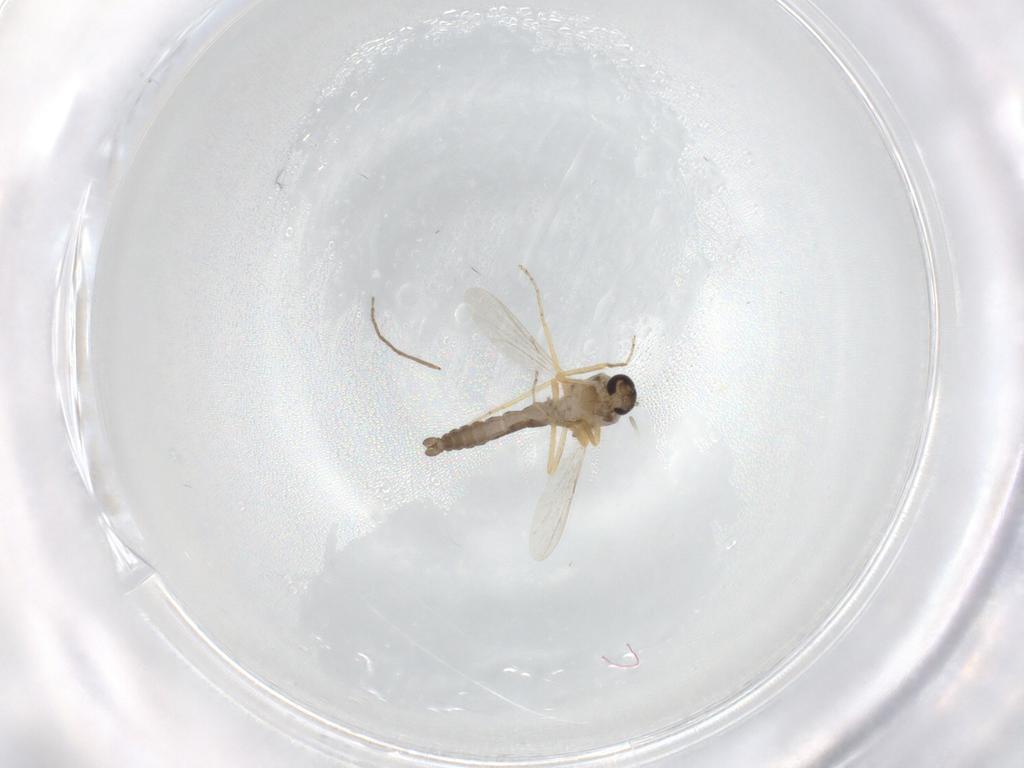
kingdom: Animalia
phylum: Arthropoda
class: Insecta
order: Diptera
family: Ceratopogonidae
